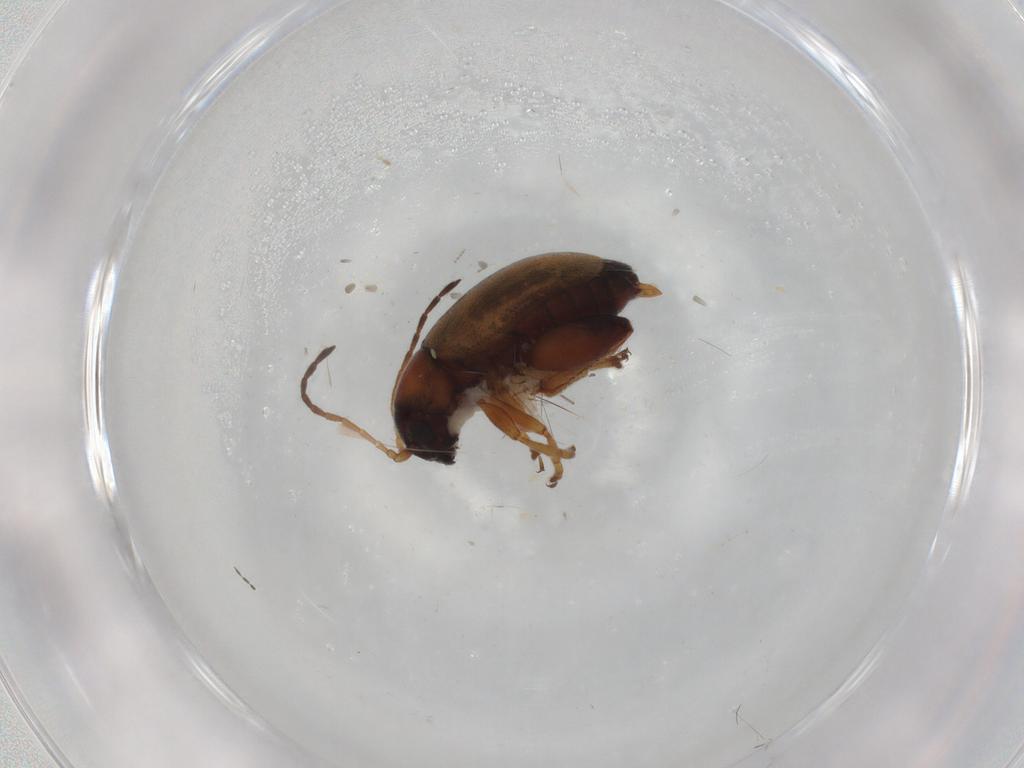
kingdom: Animalia
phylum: Arthropoda
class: Insecta
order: Coleoptera
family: Chrysomelidae
